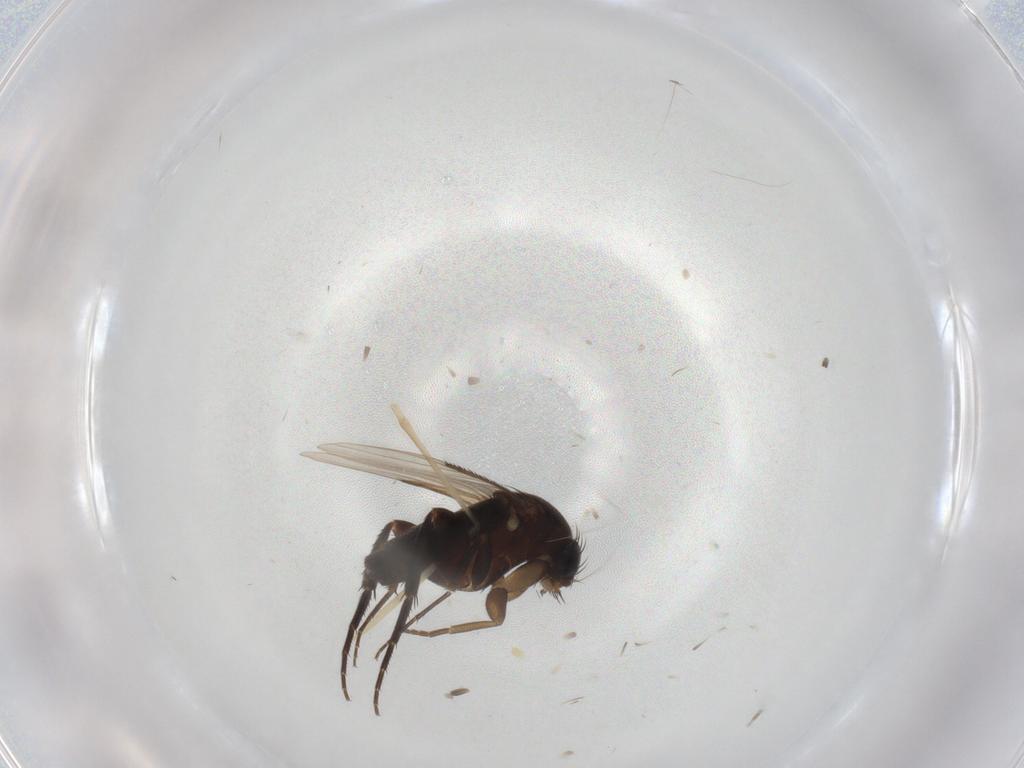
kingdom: Animalia
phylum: Arthropoda
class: Insecta
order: Diptera
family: Phoridae
